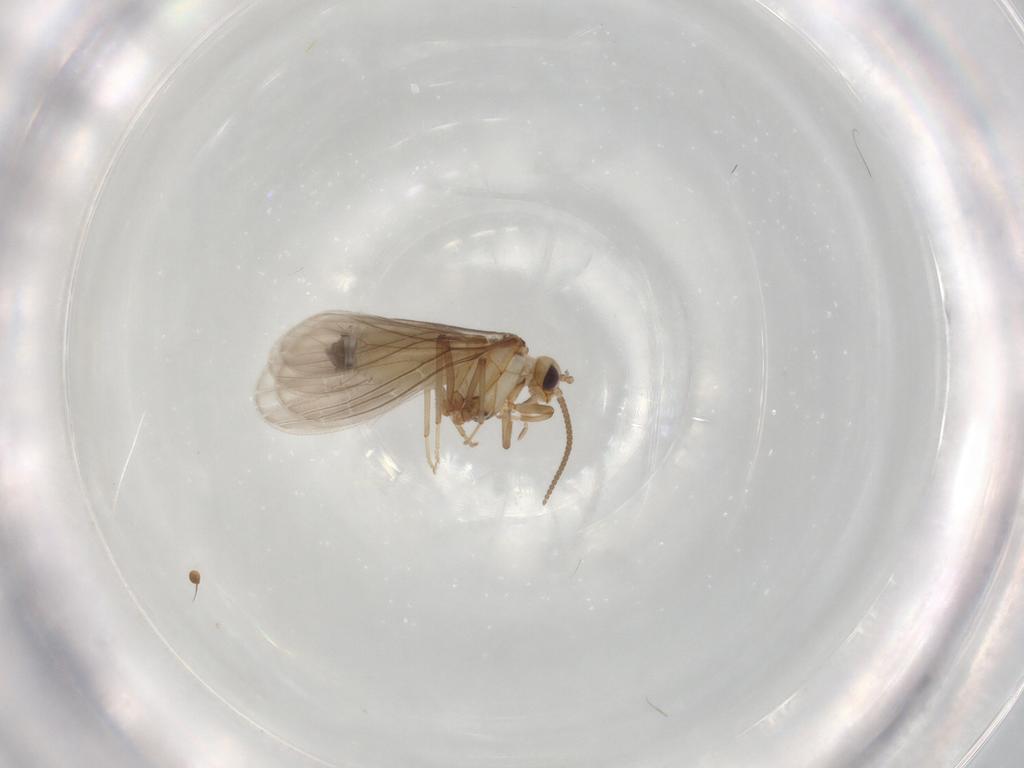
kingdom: Animalia
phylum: Arthropoda
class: Insecta
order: Neuroptera
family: Coniopterygidae
